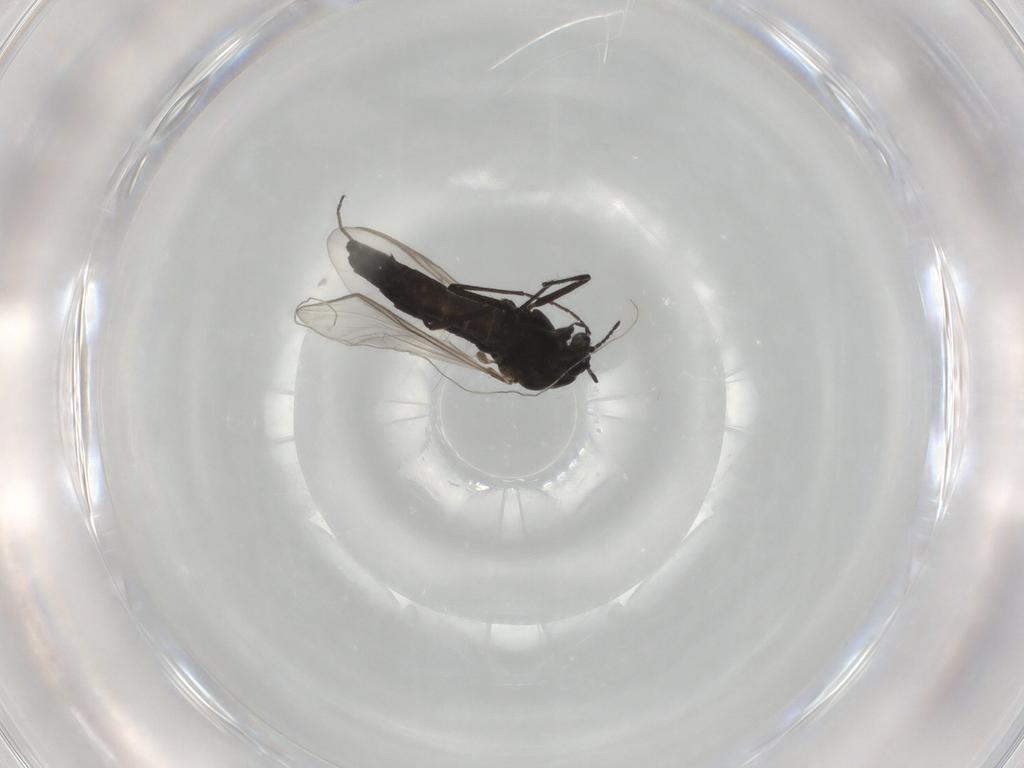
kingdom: Animalia
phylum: Arthropoda
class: Insecta
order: Diptera
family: Chironomidae
